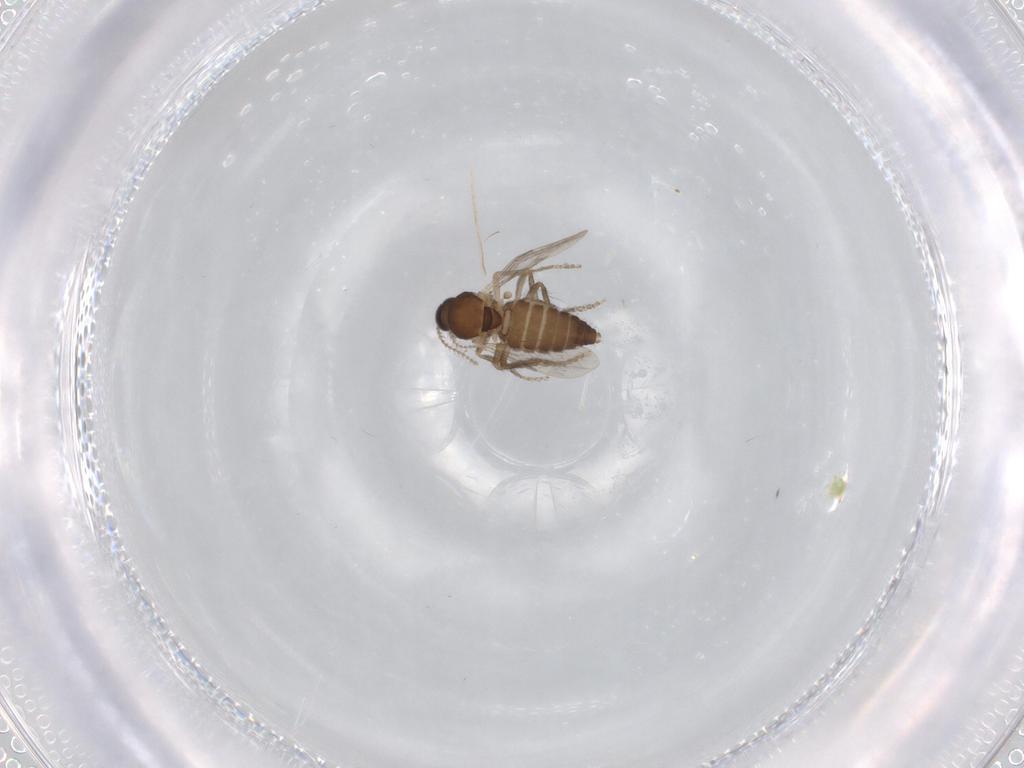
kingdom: Animalia
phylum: Arthropoda
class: Insecta
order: Diptera
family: Ceratopogonidae
